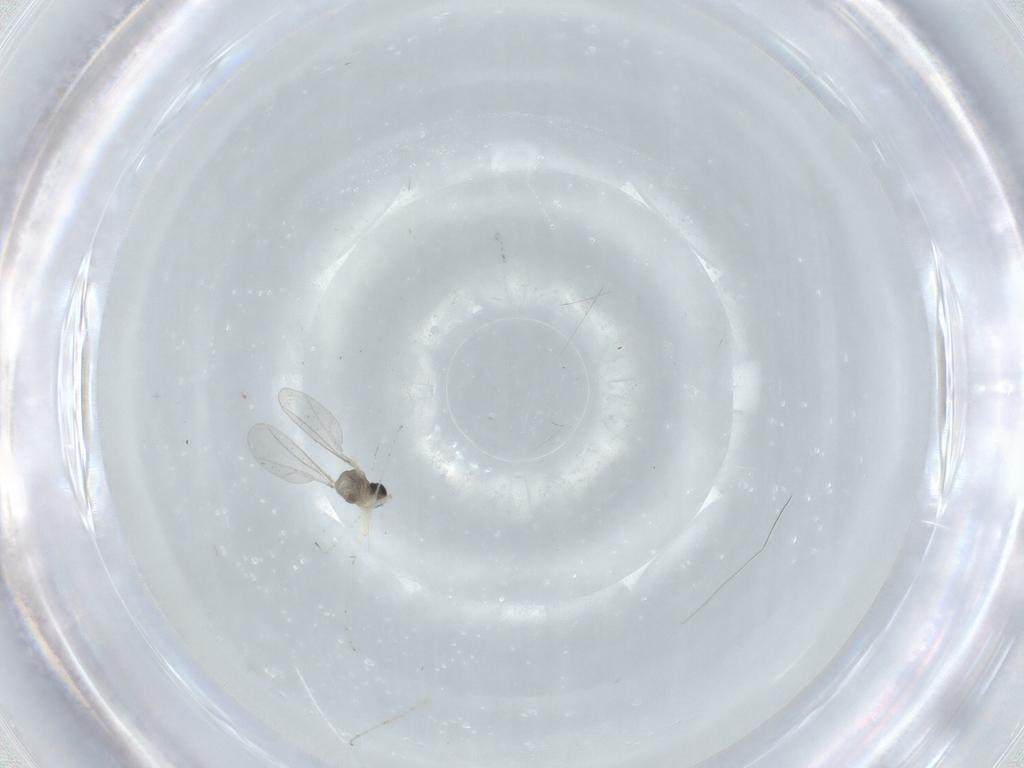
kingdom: Animalia
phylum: Arthropoda
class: Insecta
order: Diptera
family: Cecidomyiidae
